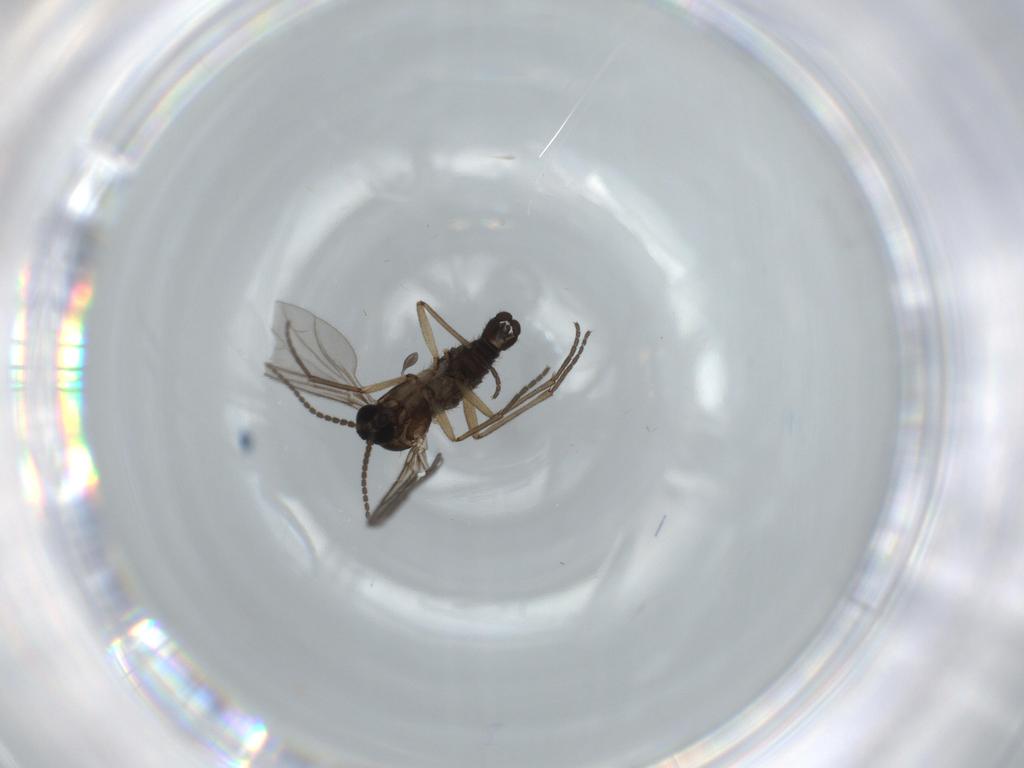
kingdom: Animalia
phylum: Arthropoda
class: Insecta
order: Diptera
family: Sciaridae
